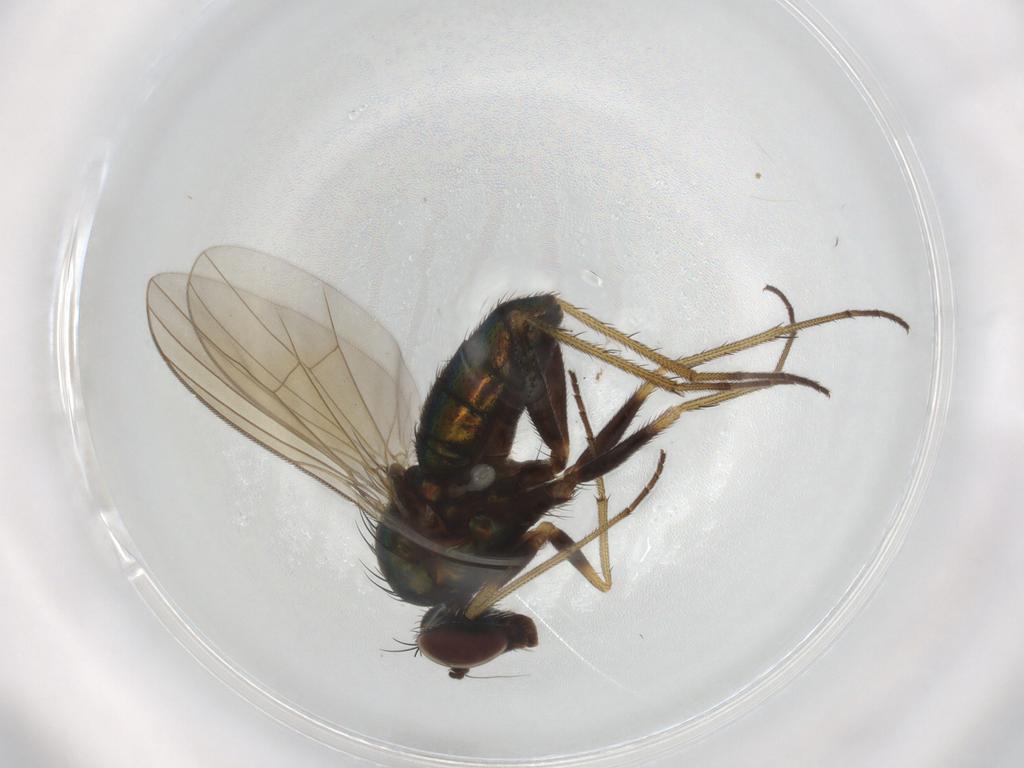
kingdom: Animalia
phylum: Arthropoda
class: Insecta
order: Diptera
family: Dolichopodidae
